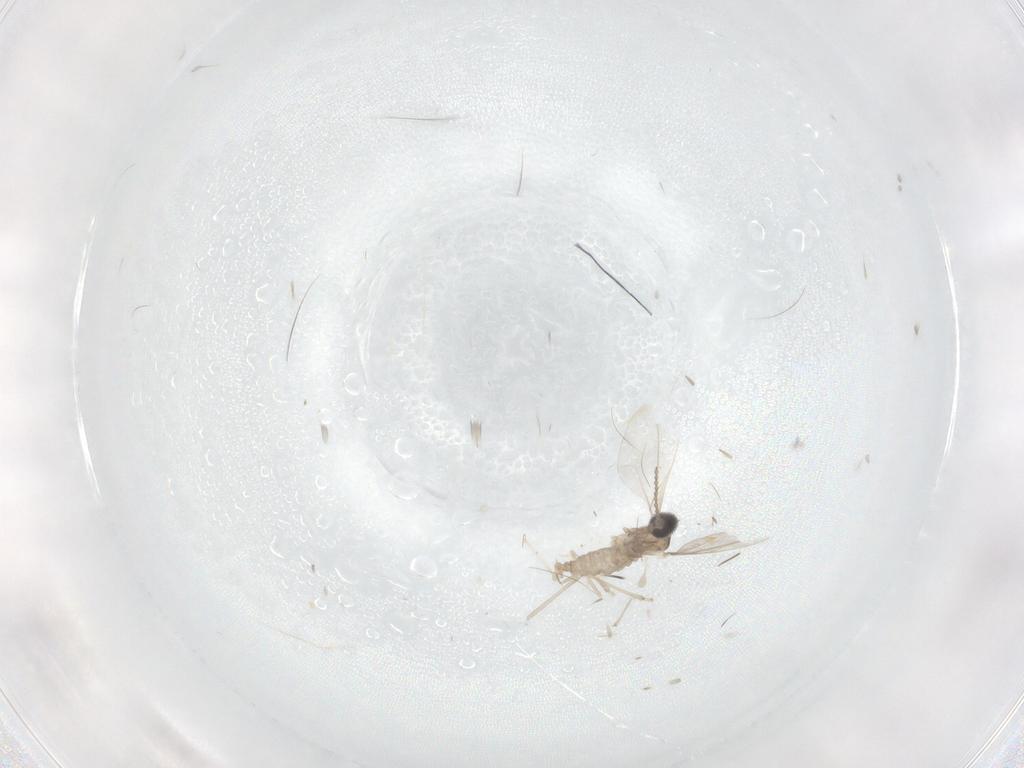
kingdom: Animalia
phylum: Arthropoda
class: Insecta
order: Diptera
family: Cecidomyiidae
